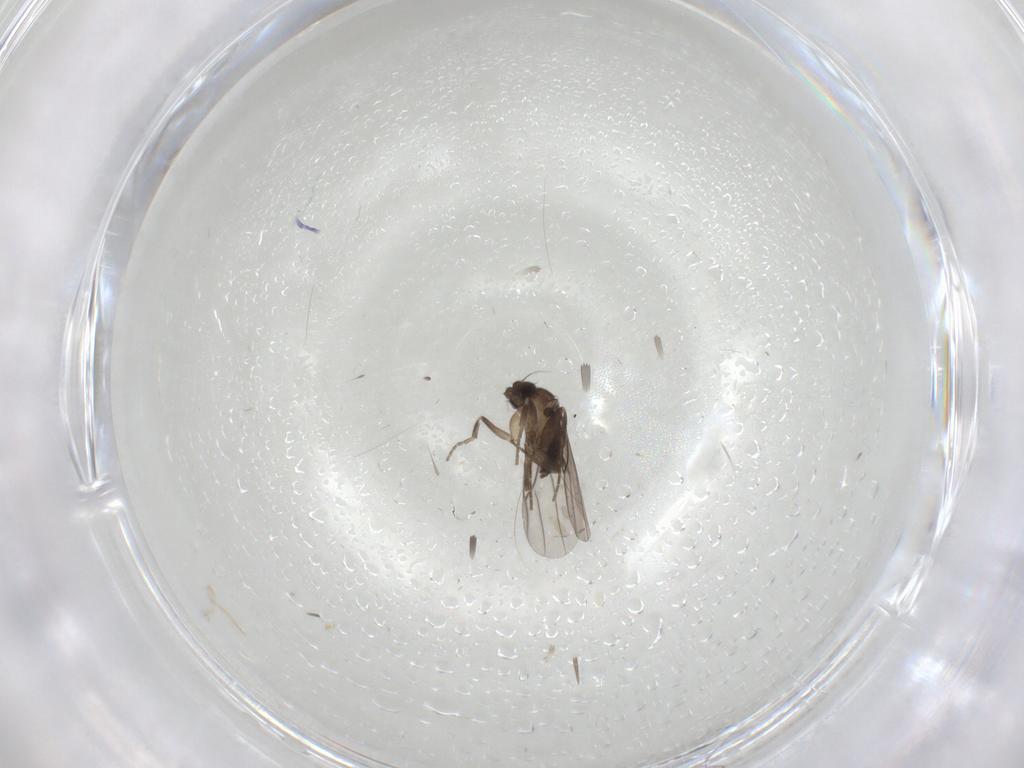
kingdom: Animalia
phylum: Arthropoda
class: Insecta
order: Diptera
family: Phoridae
